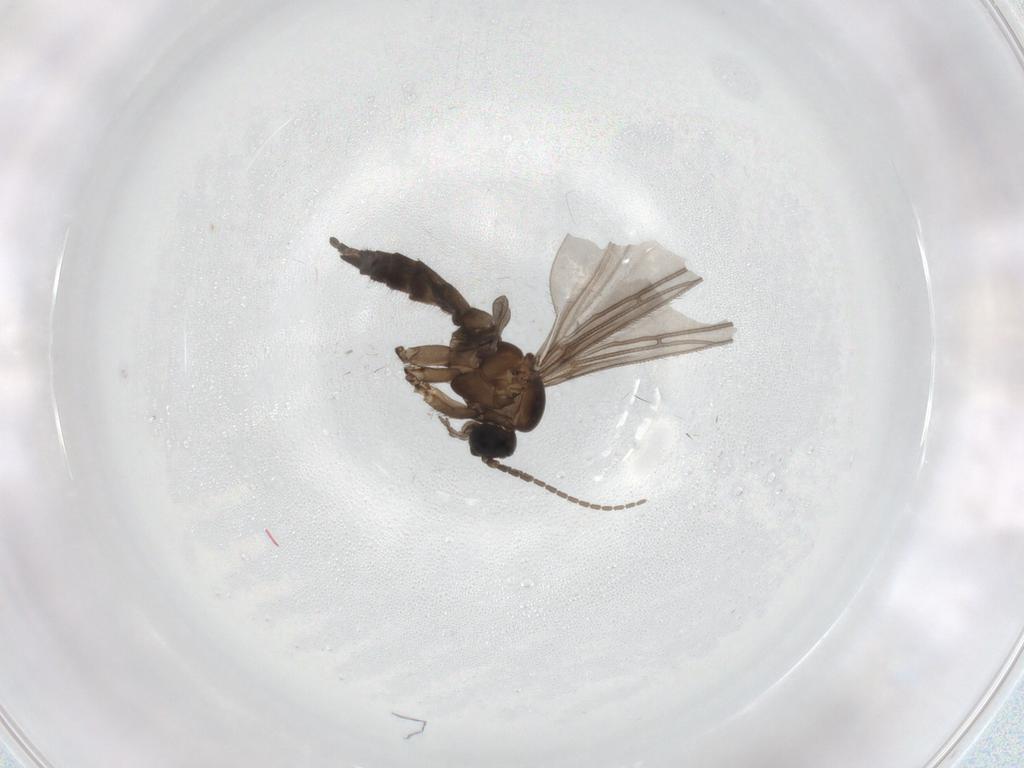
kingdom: Animalia
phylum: Arthropoda
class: Insecta
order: Diptera
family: Sciaridae
